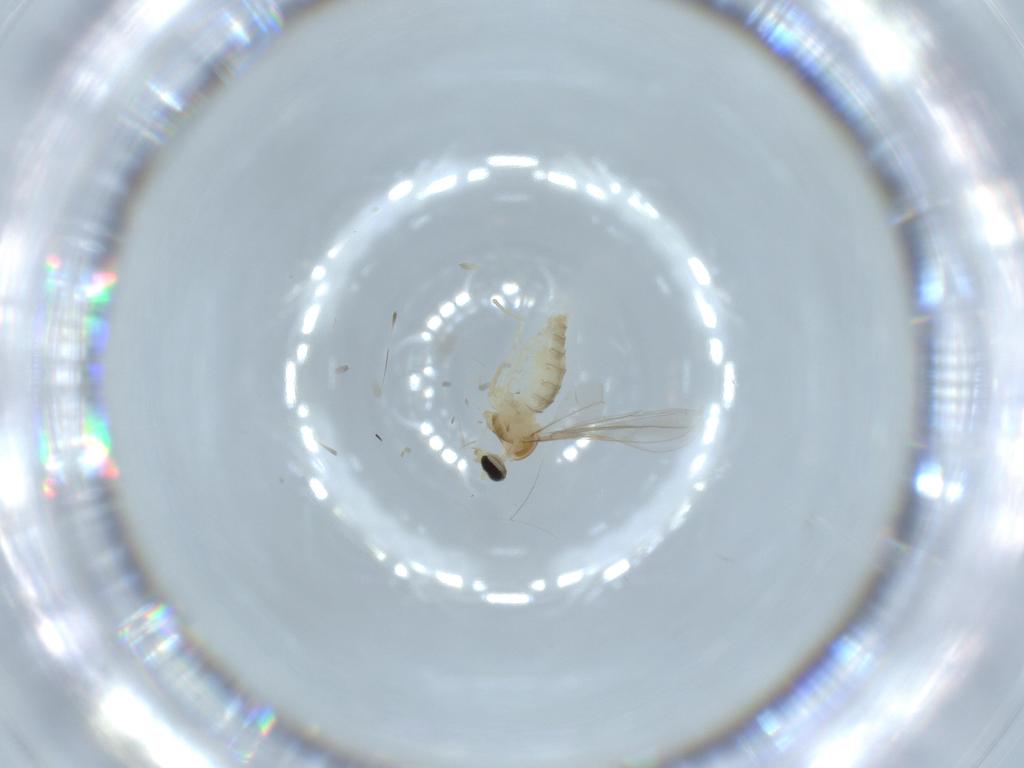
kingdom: Animalia
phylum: Arthropoda
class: Insecta
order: Diptera
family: Cecidomyiidae
